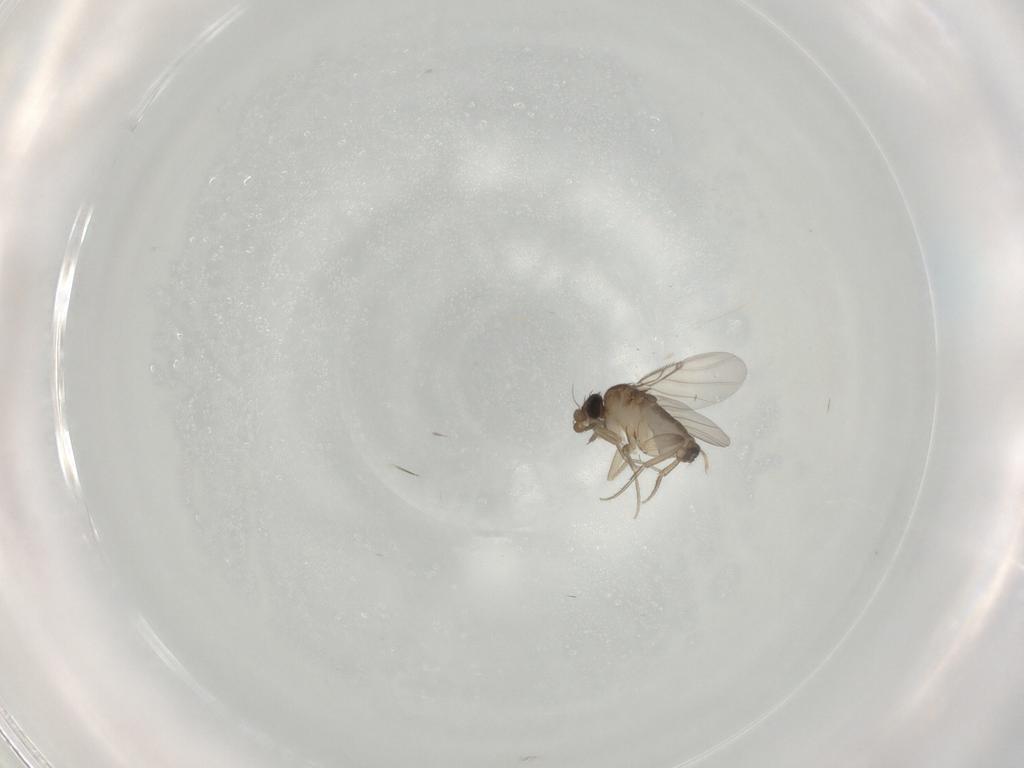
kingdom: Animalia
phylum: Arthropoda
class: Insecta
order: Diptera
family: Phoridae
